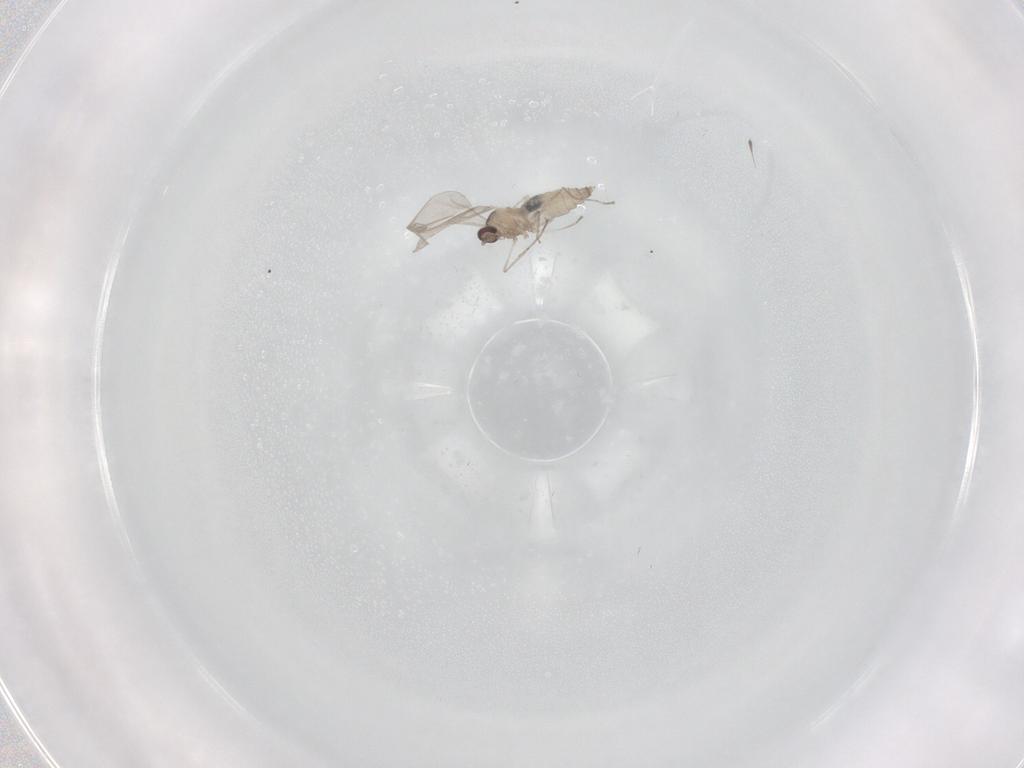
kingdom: Animalia
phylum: Arthropoda
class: Insecta
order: Diptera
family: Cecidomyiidae
